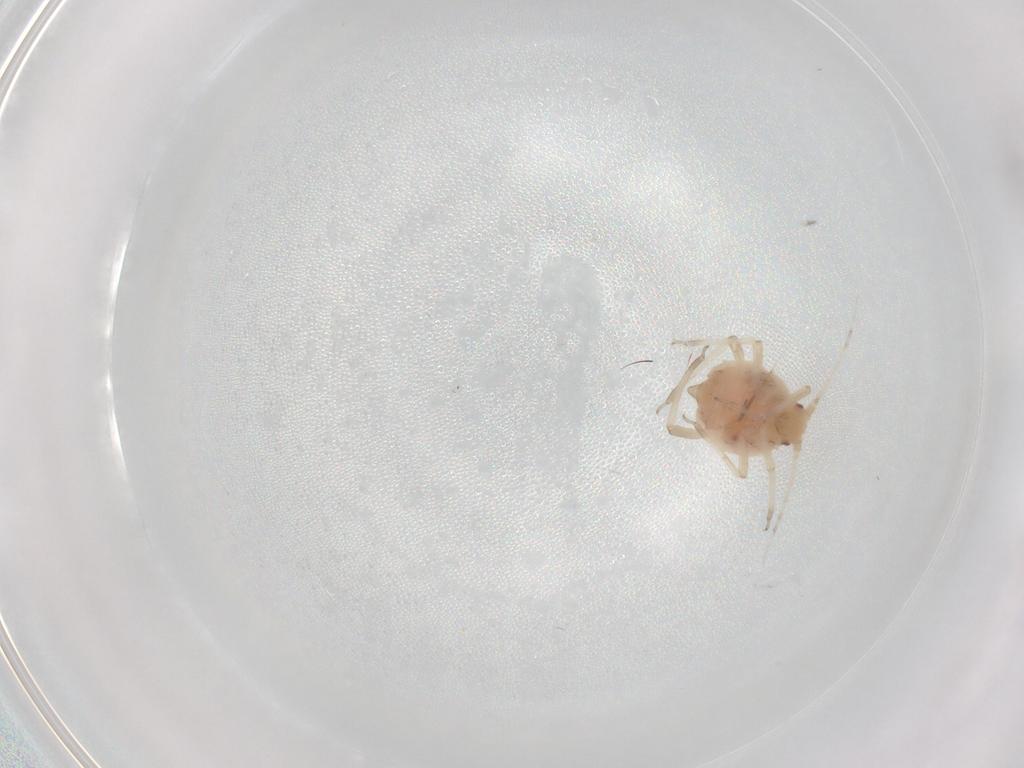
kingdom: Animalia
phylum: Arthropoda
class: Insecta
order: Hemiptera
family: Aphididae
